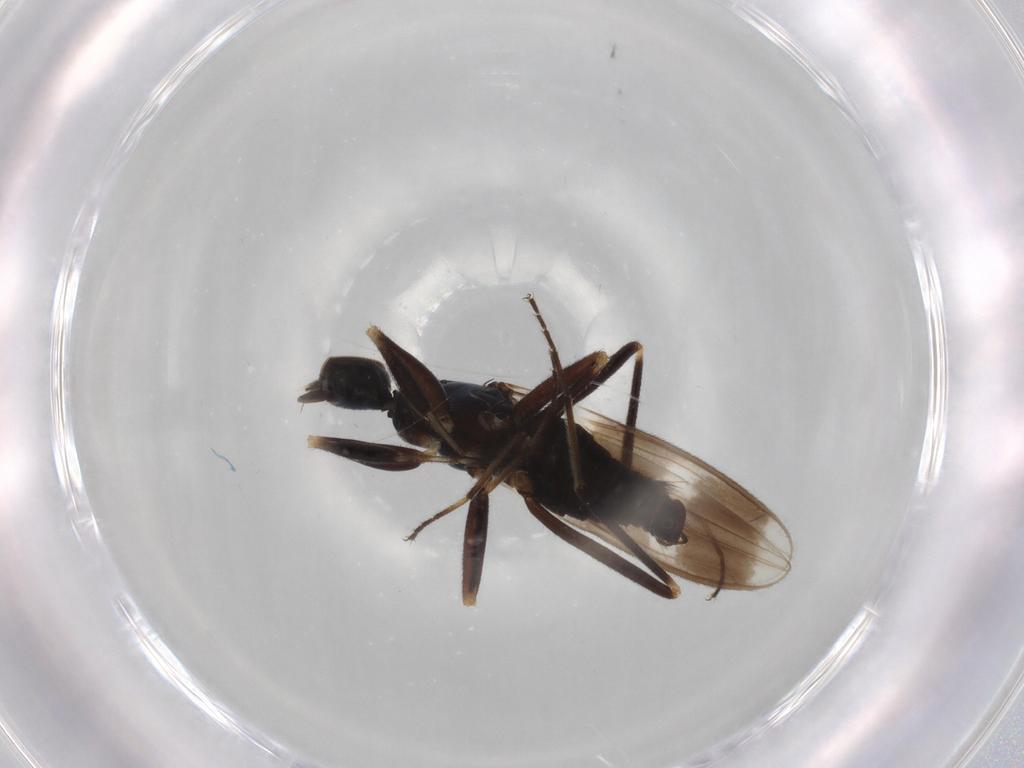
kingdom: Animalia
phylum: Arthropoda
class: Insecta
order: Diptera
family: Hybotidae
